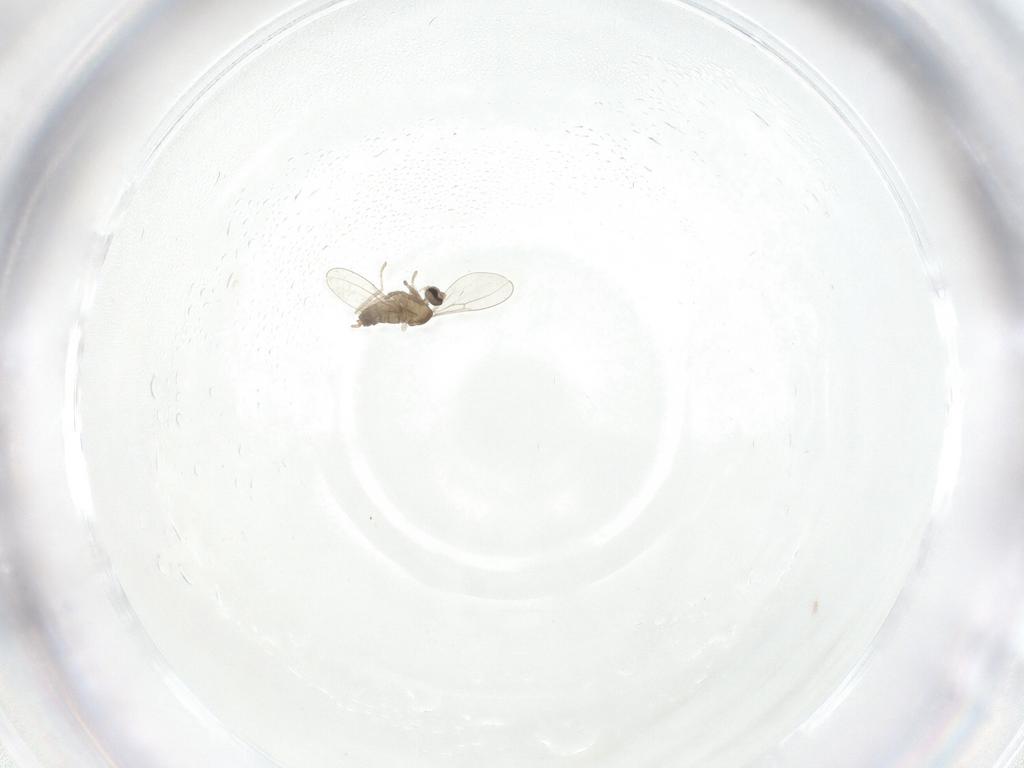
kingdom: Animalia
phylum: Arthropoda
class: Insecta
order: Diptera
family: Cecidomyiidae
